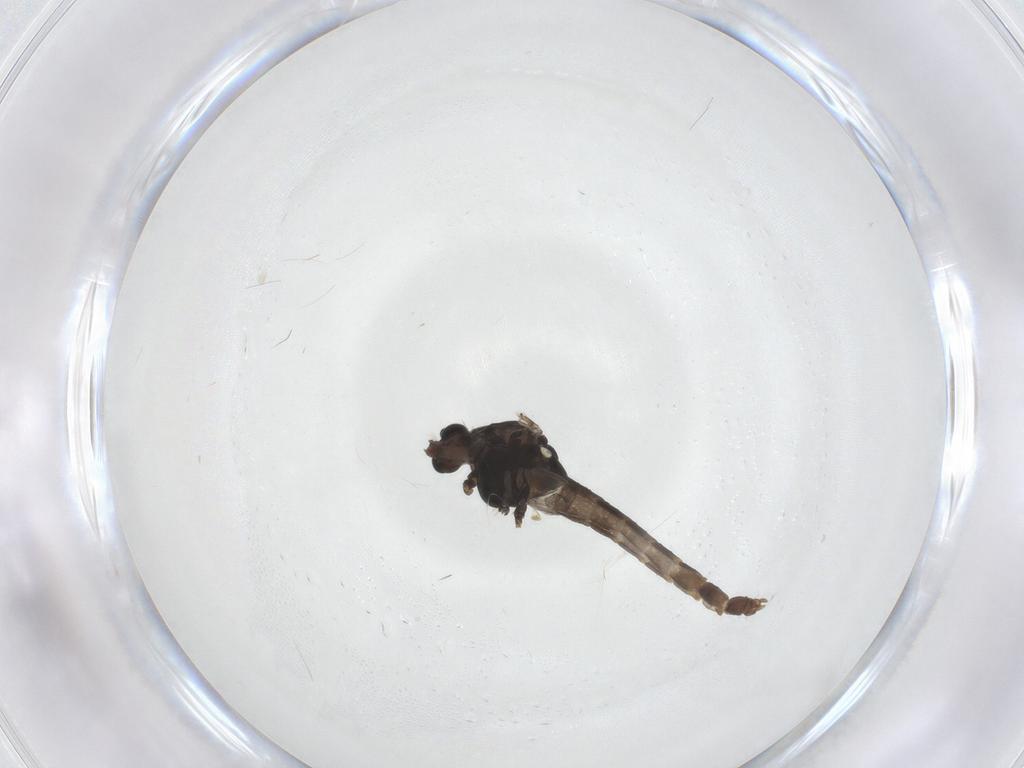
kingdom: Animalia
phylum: Arthropoda
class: Insecta
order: Diptera
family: Chironomidae
